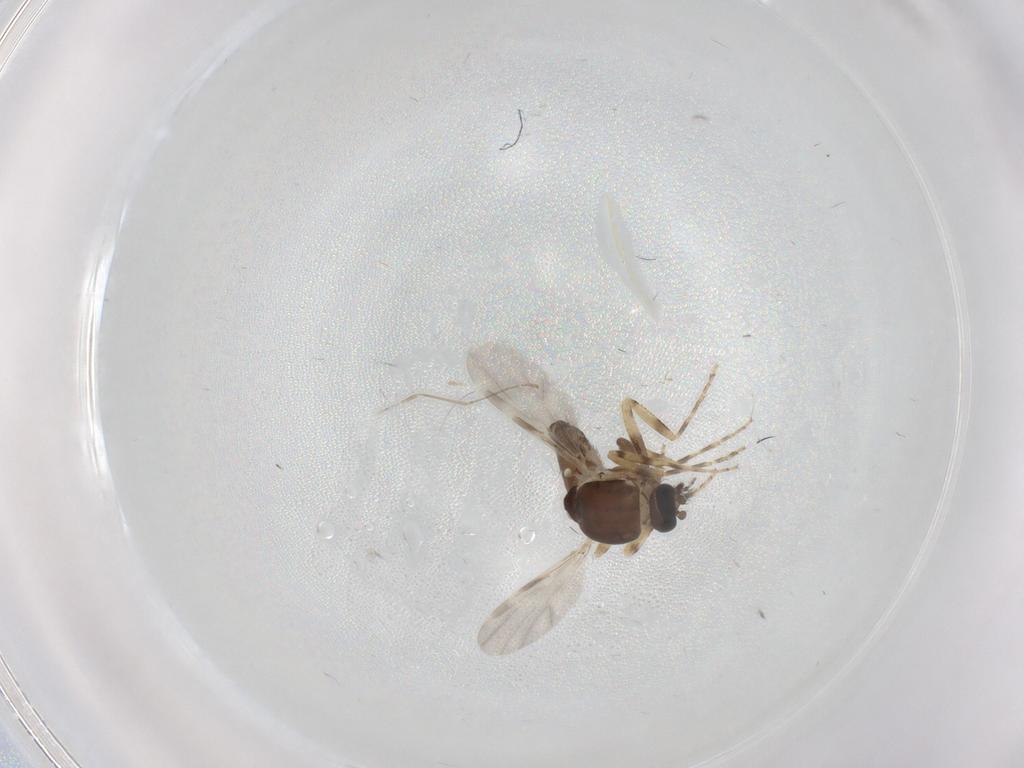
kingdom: Animalia
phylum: Arthropoda
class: Insecta
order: Diptera
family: Ceratopogonidae
